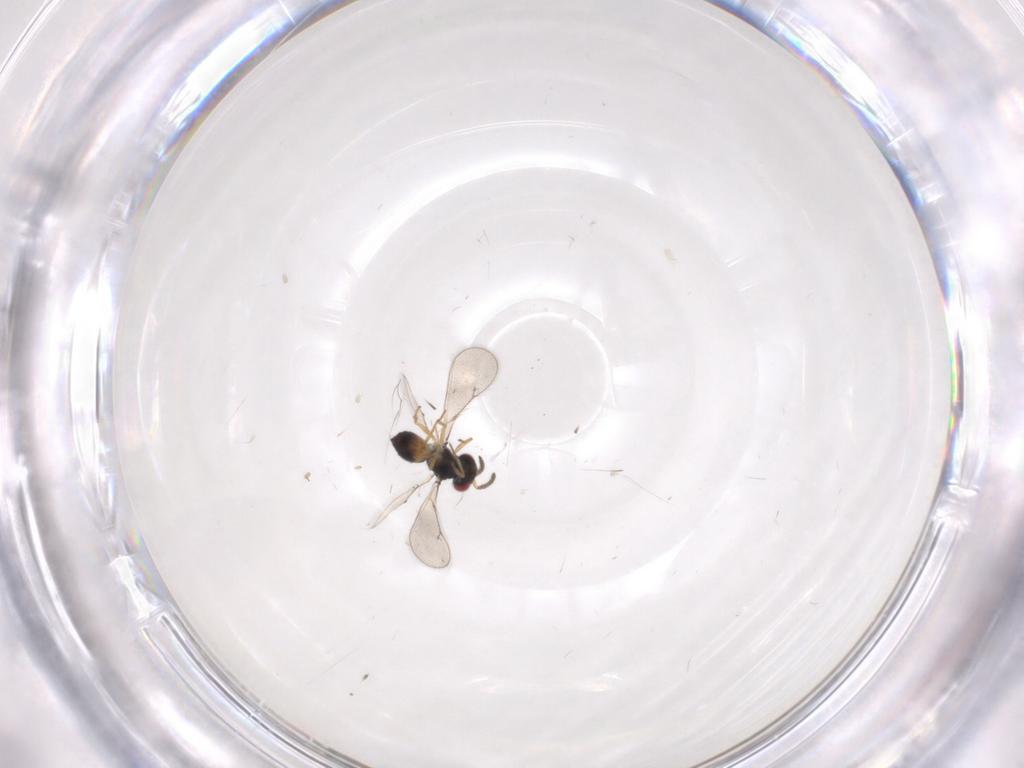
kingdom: Animalia
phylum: Arthropoda
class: Insecta
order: Hymenoptera
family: Eulophidae
